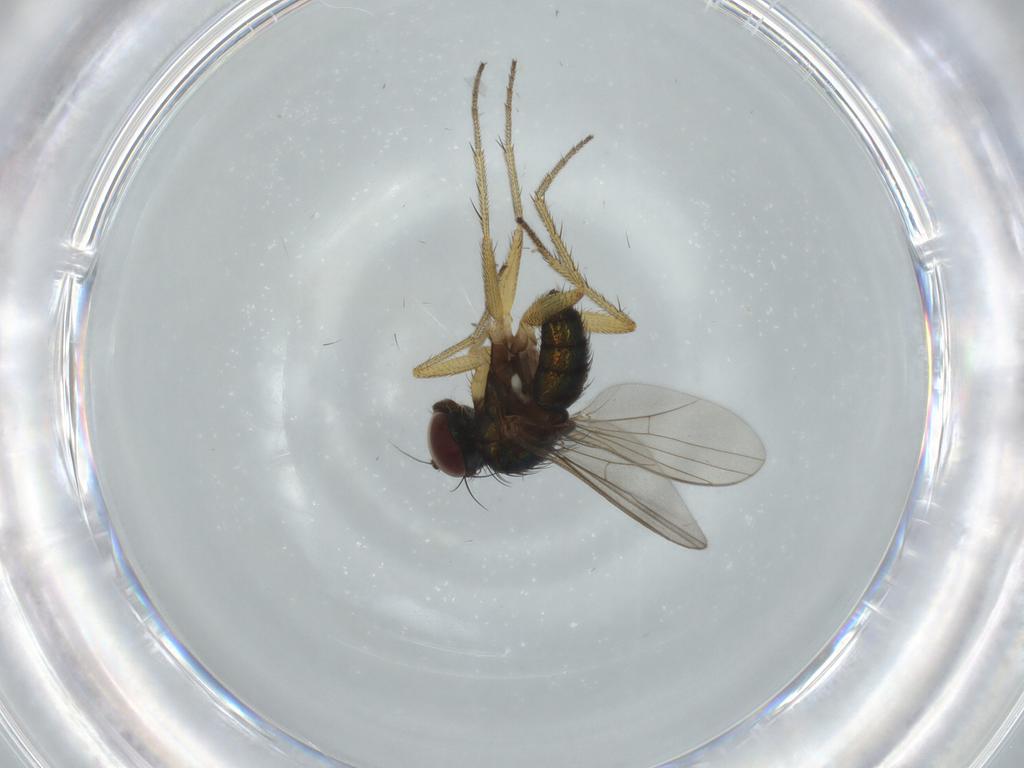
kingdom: Animalia
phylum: Arthropoda
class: Insecta
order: Diptera
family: Dolichopodidae
